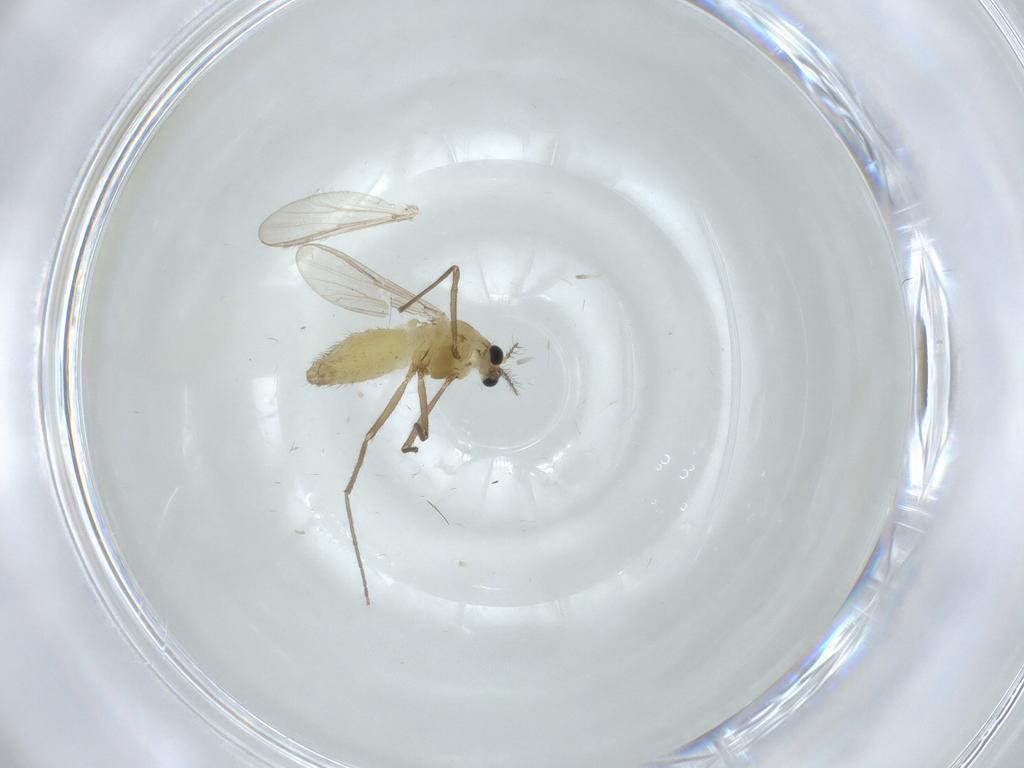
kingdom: Animalia
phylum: Arthropoda
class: Insecta
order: Diptera
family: Chironomidae
